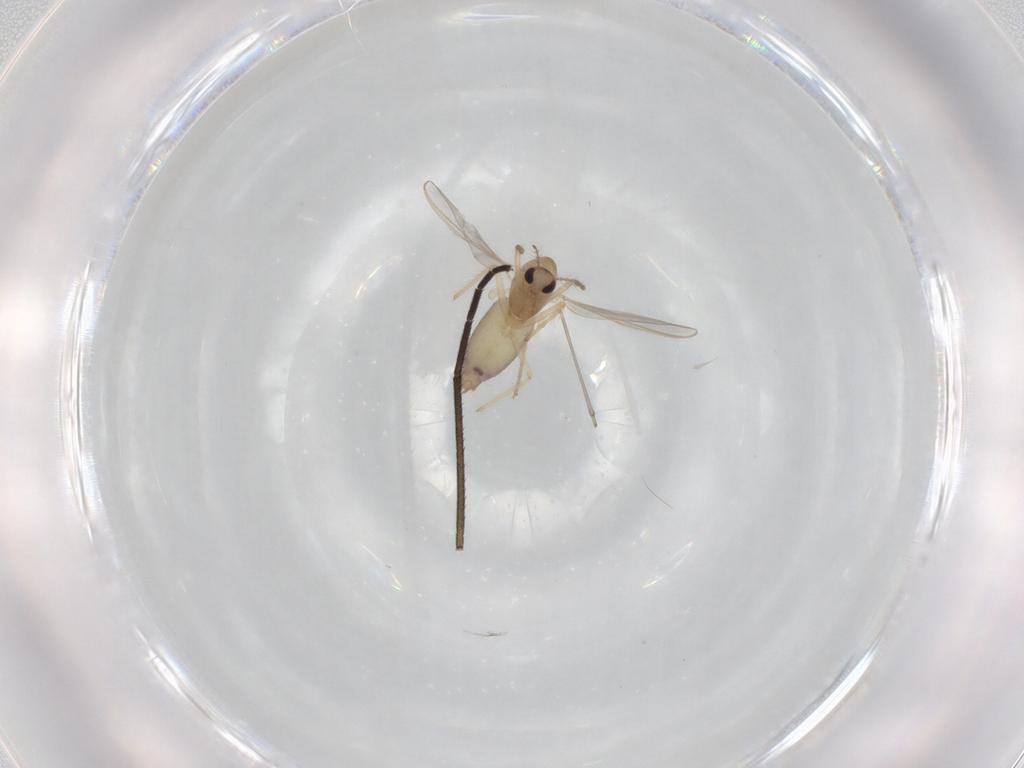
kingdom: Animalia
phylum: Arthropoda
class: Insecta
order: Diptera
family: Chironomidae
